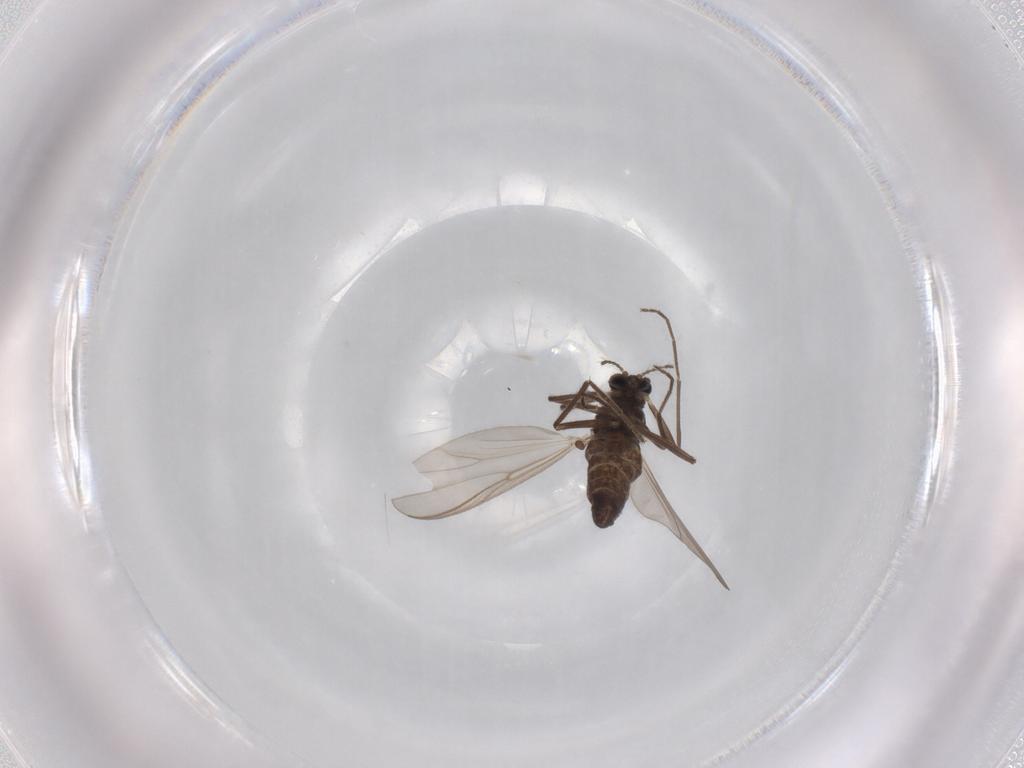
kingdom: Animalia
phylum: Arthropoda
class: Insecta
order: Diptera
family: Chironomidae
